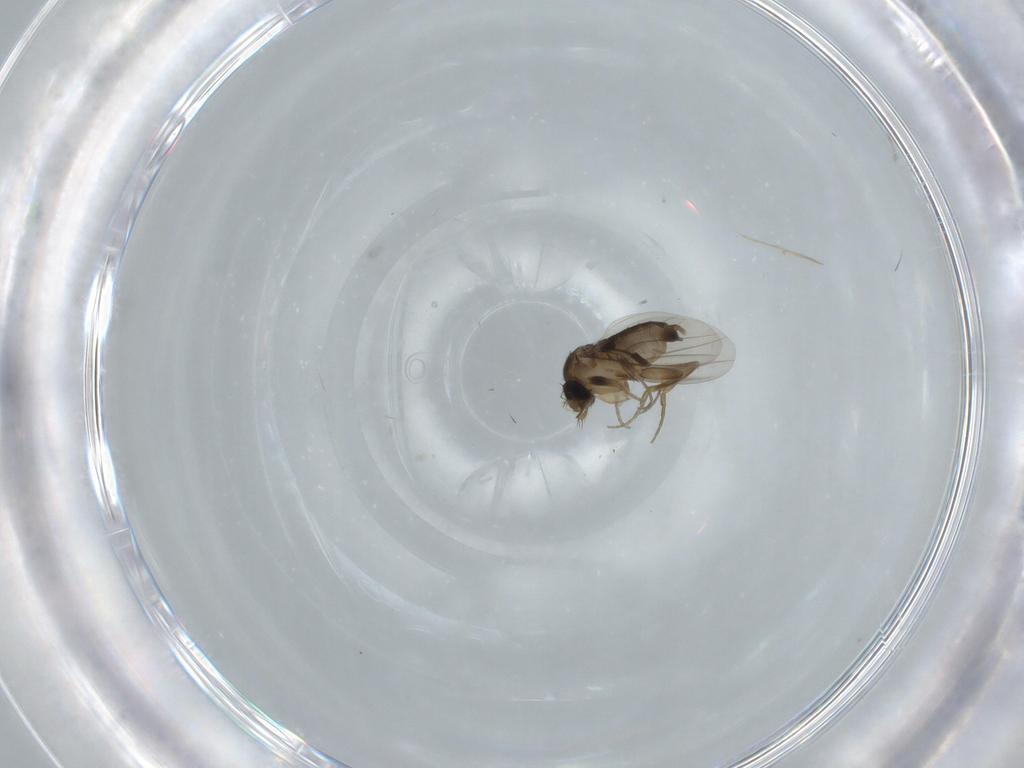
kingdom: Animalia
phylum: Arthropoda
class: Insecta
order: Diptera
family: Phoridae
